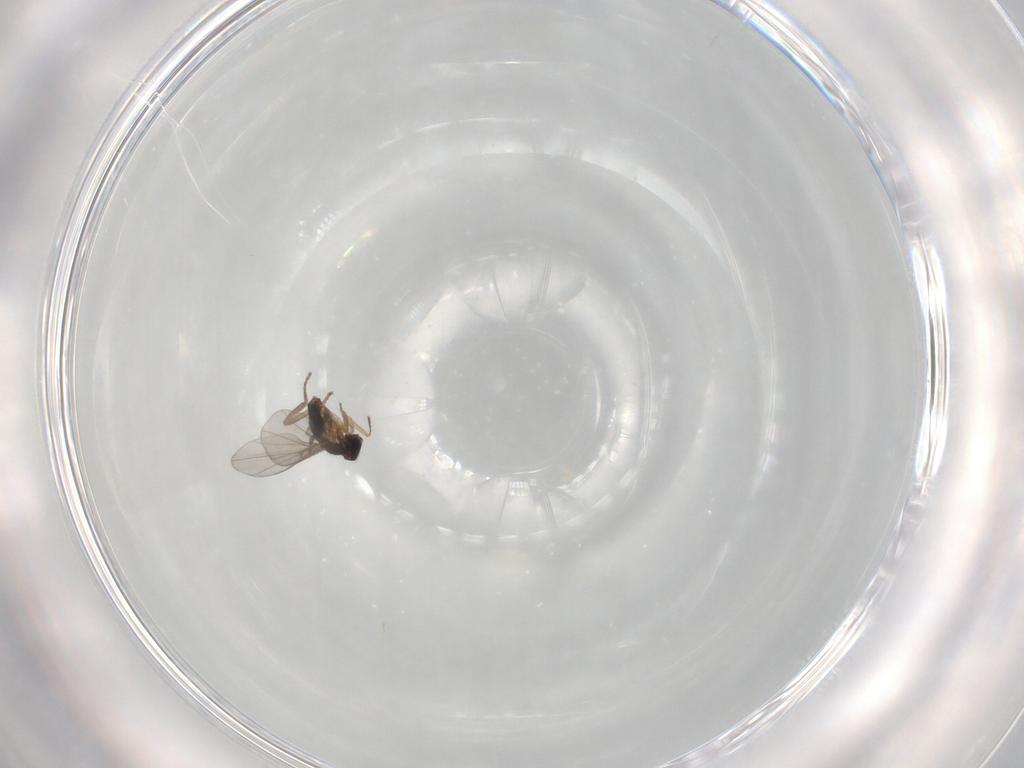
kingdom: Animalia
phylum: Arthropoda
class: Insecta
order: Diptera
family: Phoridae
